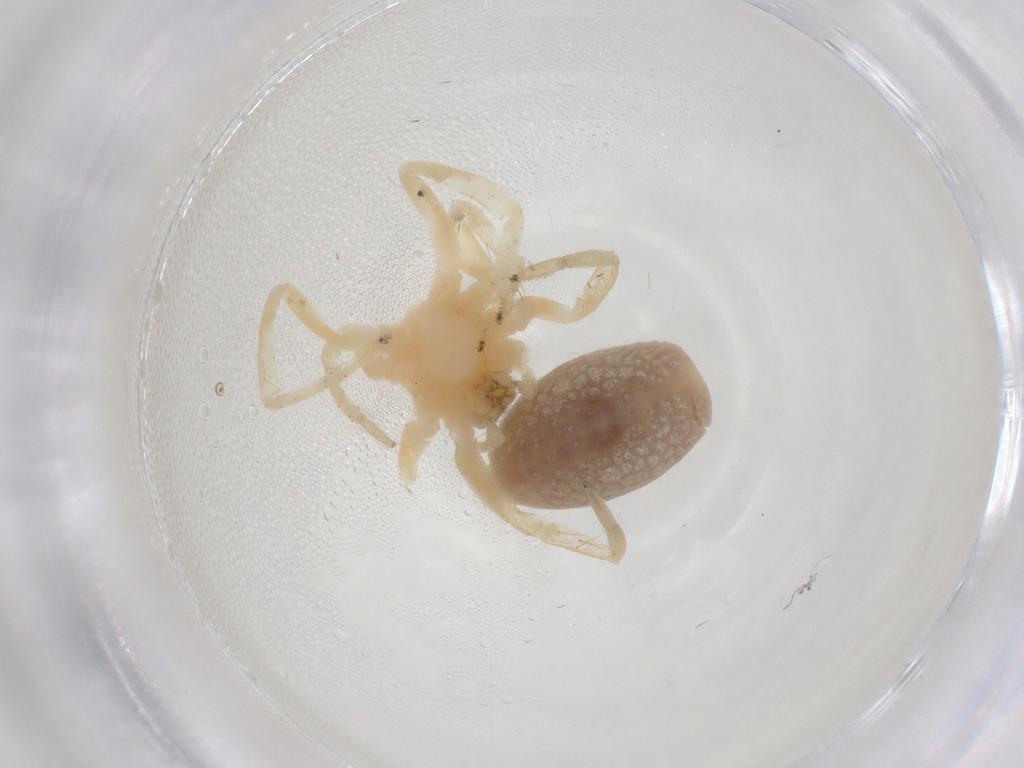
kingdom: Animalia
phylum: Arthropoda
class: Arachnida
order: Araneae
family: Anyphaenidae
